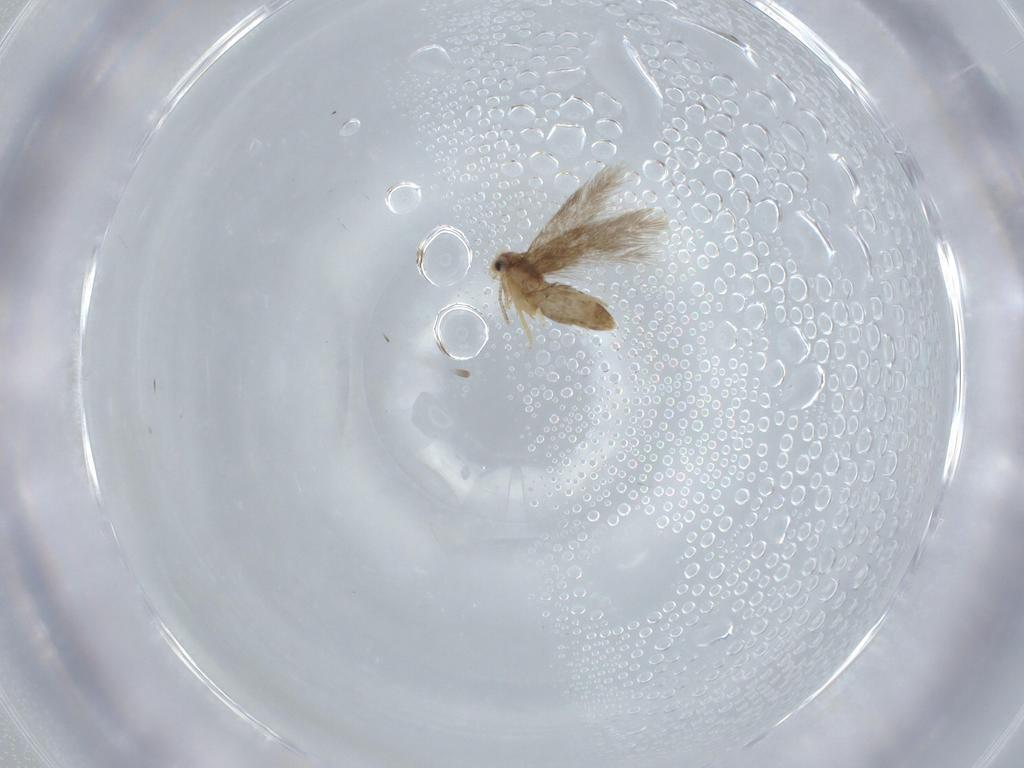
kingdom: Animalia
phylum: Arthropoda
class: Insecta
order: Lepidoptera
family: Nepticulidae
